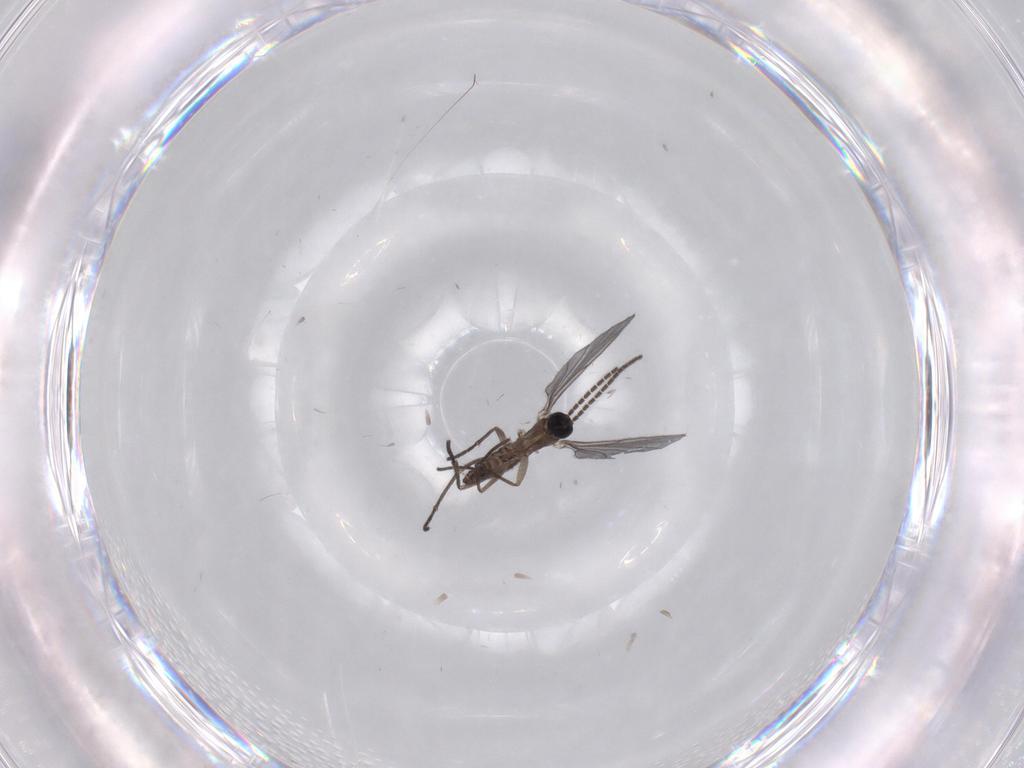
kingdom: Animalia
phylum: Arthropoda
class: Insecta
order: Diptera
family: Sciaridae
